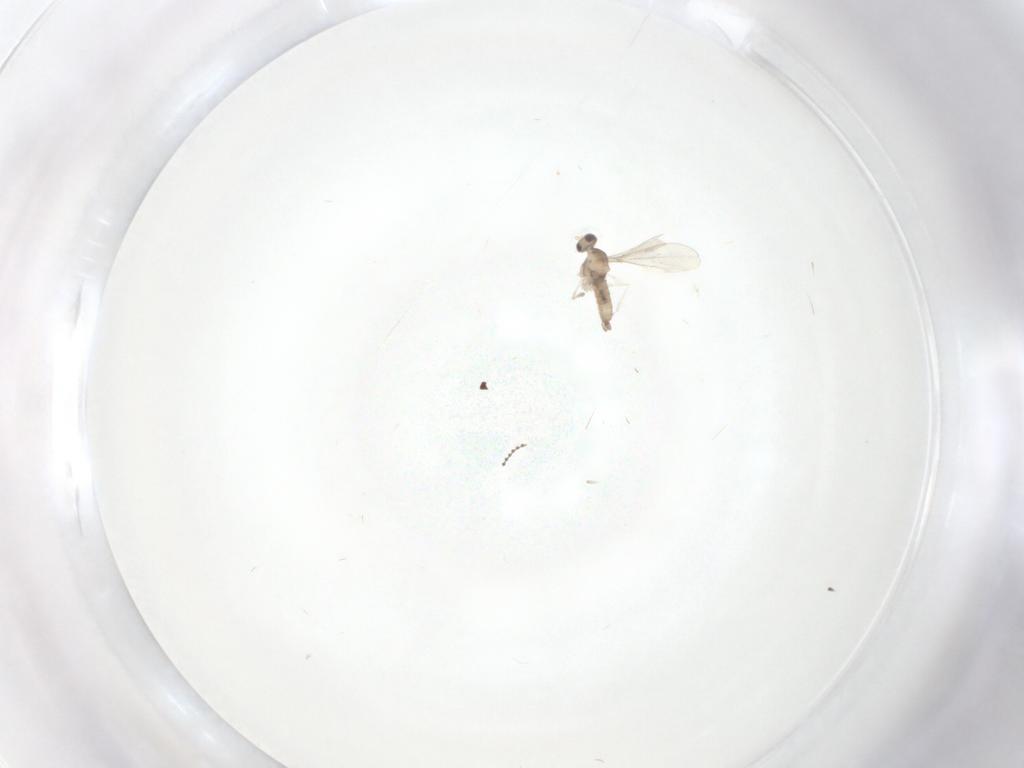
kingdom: Animalia
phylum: Arthropoda
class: Insecta
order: Diptera
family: Cecidomyiidae
